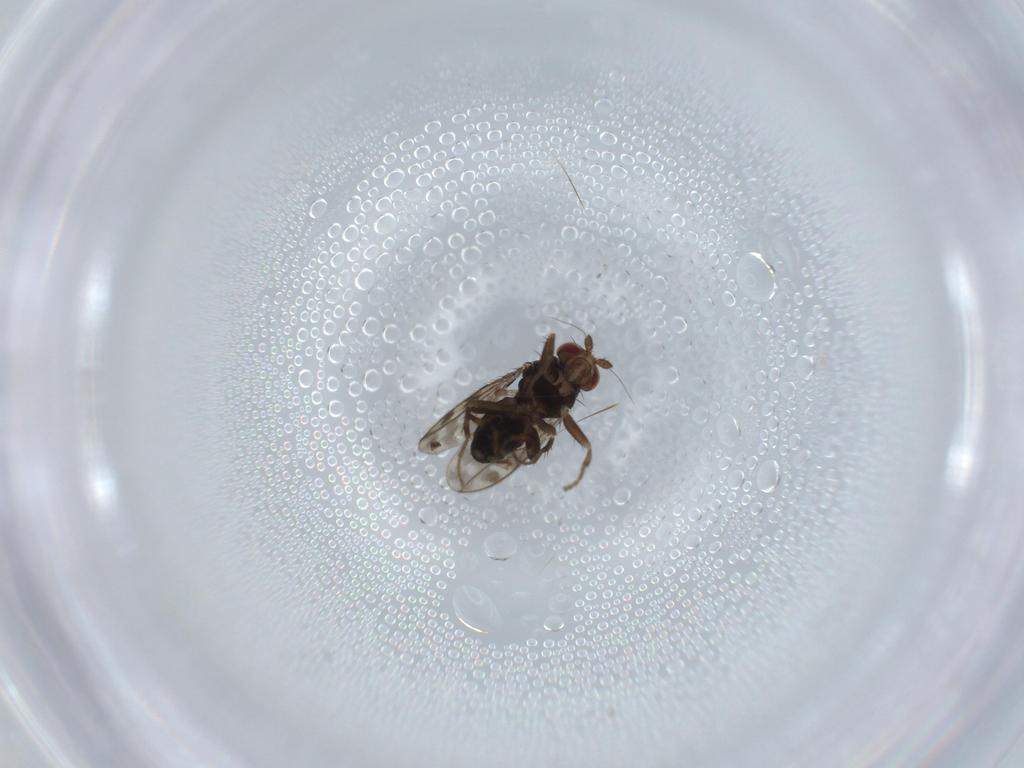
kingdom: Animalia
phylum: Arthropoda
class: Insecta
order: Diptera
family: Sphaeroceridae
